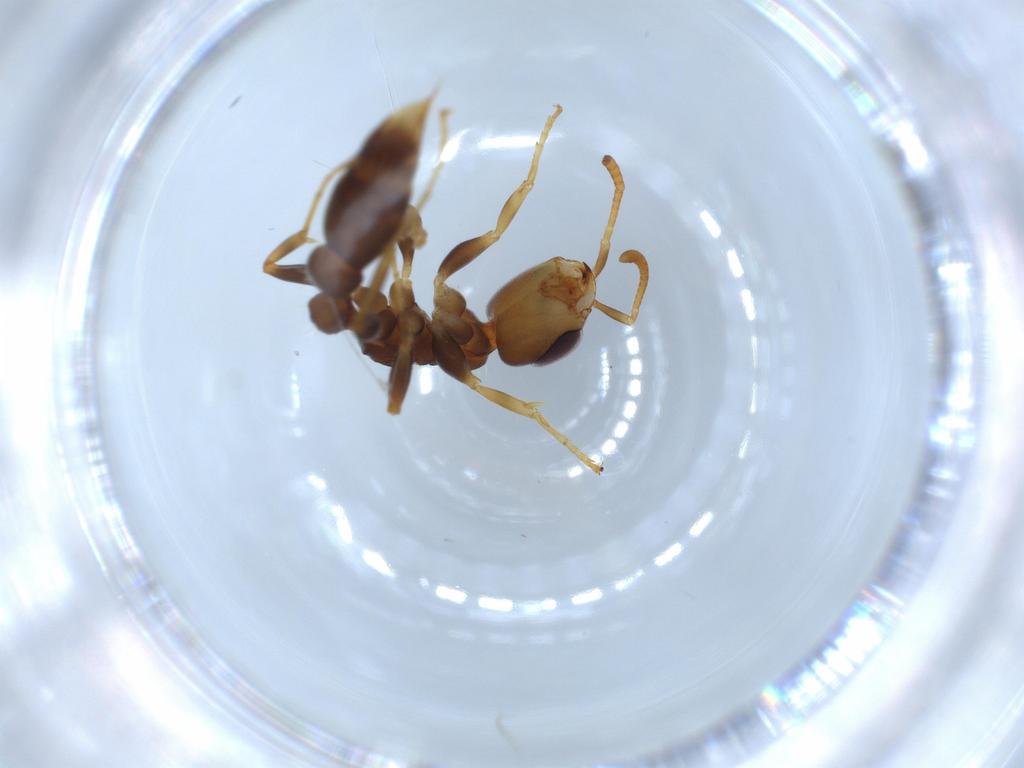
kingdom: Animalia
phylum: Arthropoda
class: Insecta
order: Hymenoptera
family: Formicidae
